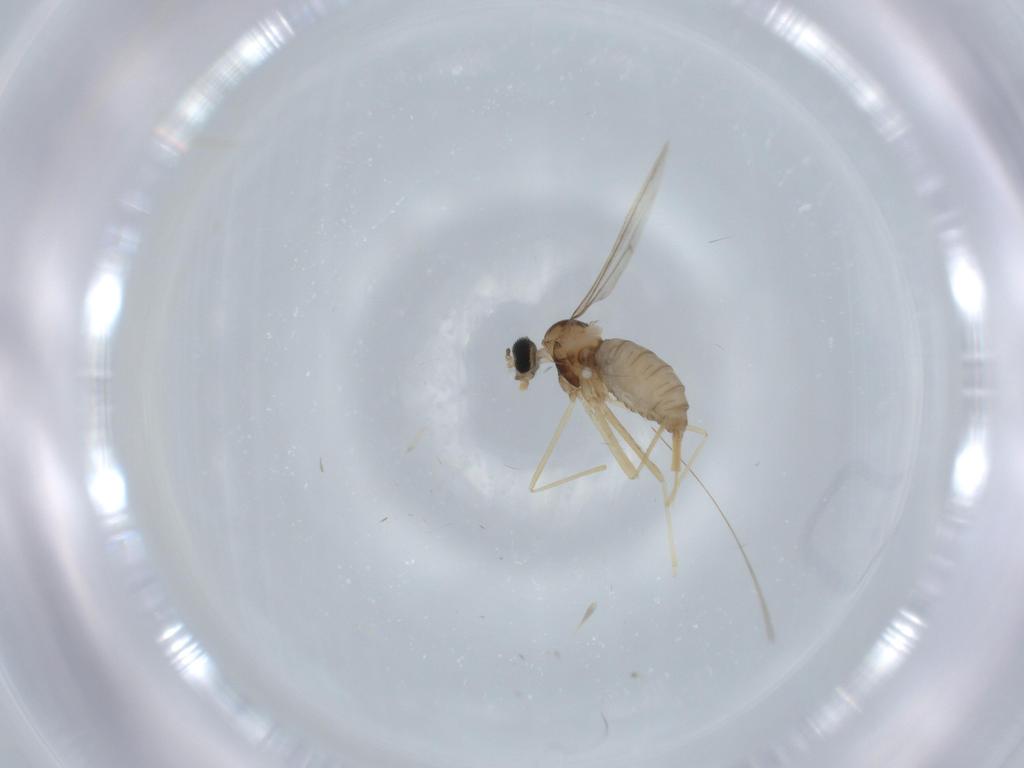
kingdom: Animalia
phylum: Arthropoda
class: Insecta
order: Diptera
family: Cecidomyiidae
